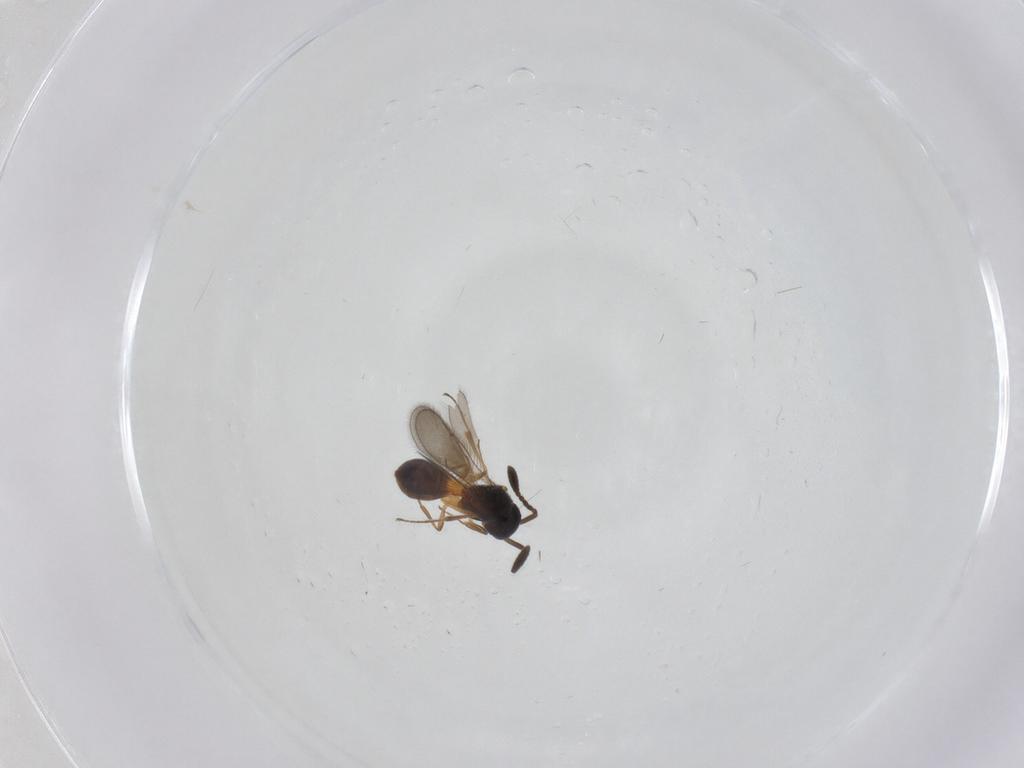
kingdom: Animalia
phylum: Arthropoda
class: Insecta
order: Hymenoptera
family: Scelionidae
